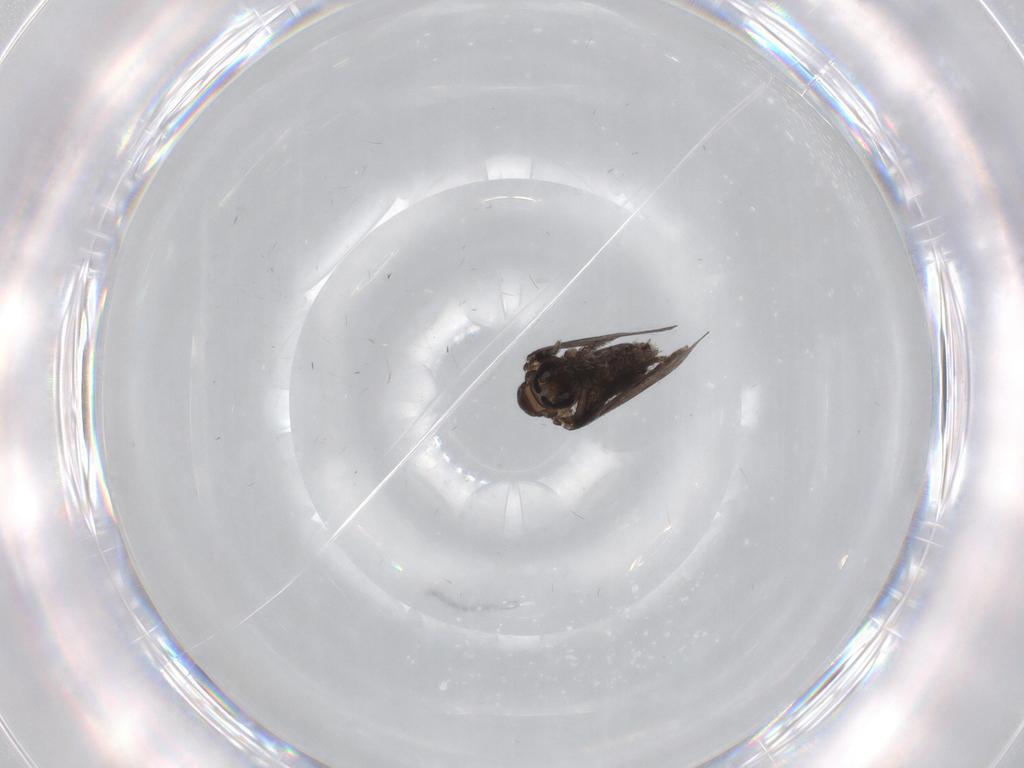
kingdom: Animalia
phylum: Arthropoda
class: Insecta
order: Diptera
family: Psychodidae
